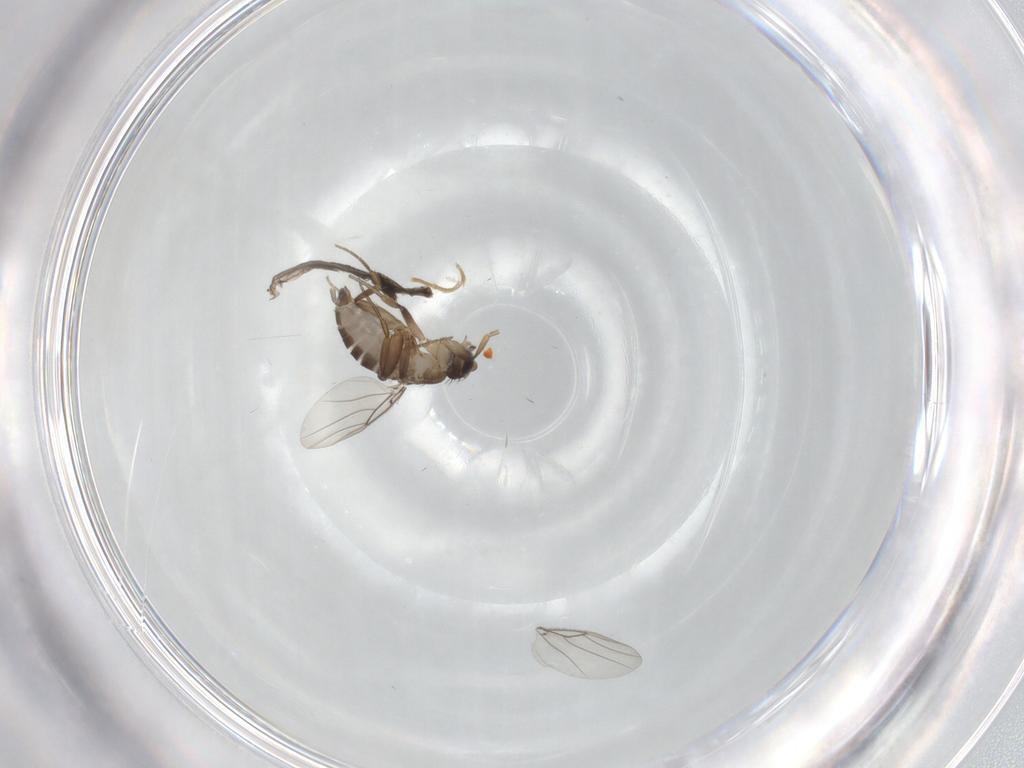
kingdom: Animalia
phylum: Arthropoda
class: Insecta
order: Diptera
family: Phoridae
